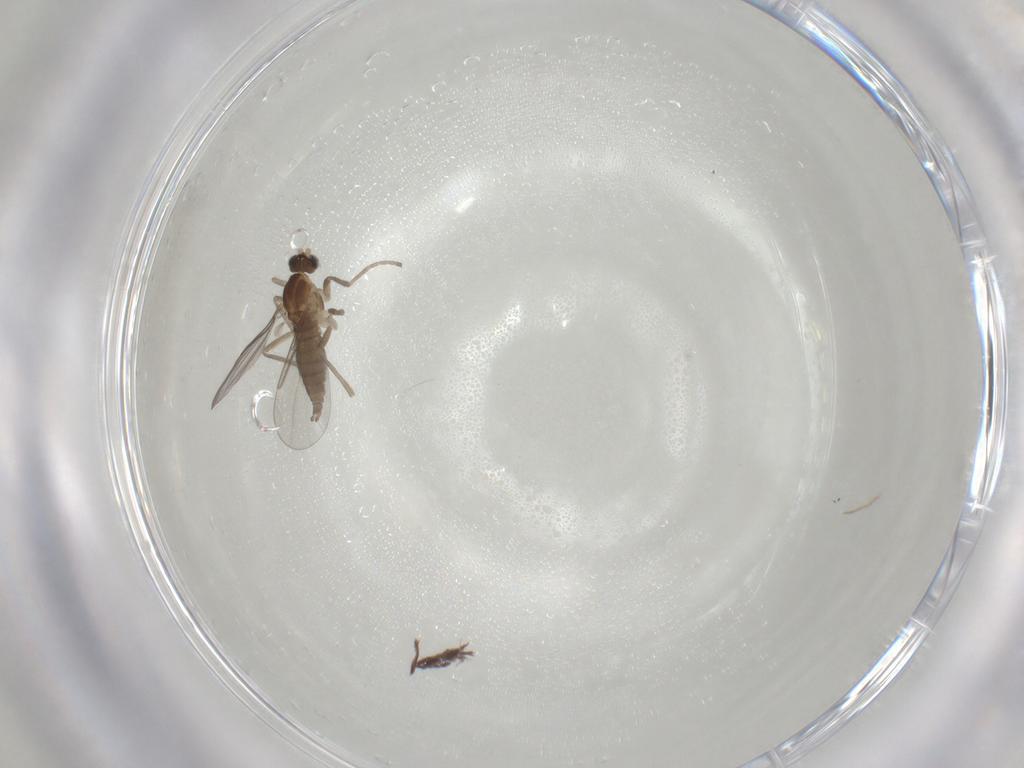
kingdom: Animalia
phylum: Arthropoda
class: Insecta
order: Diptera
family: Cecidomyiidae
